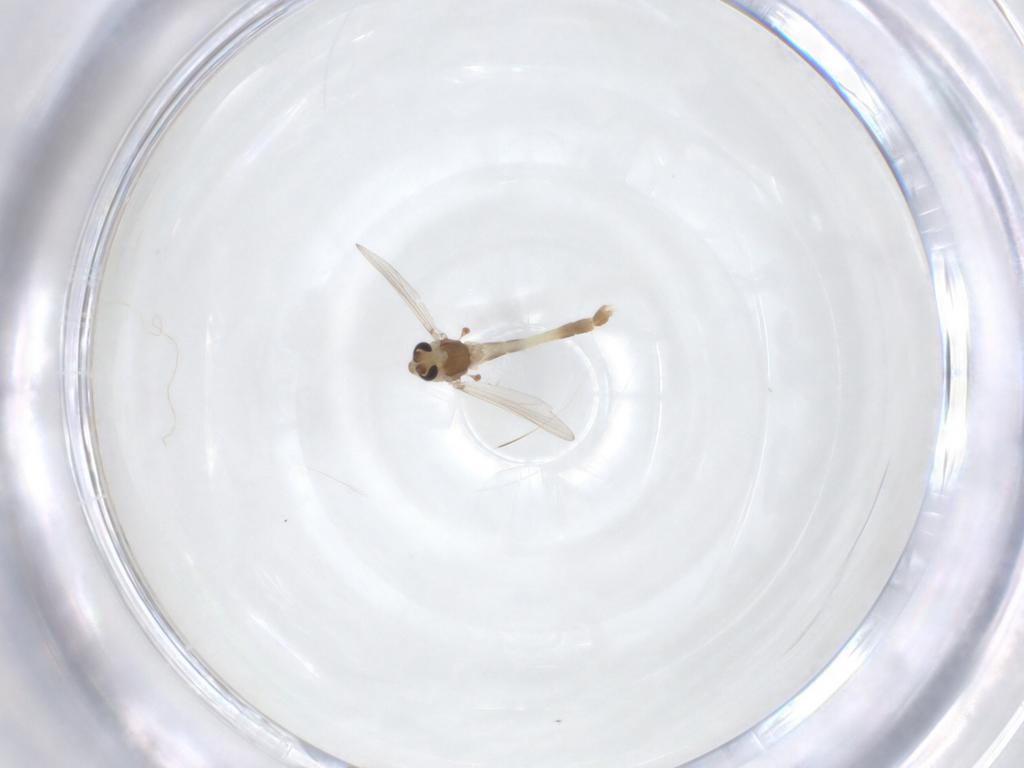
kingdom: Animalia
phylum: Arthropoda
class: Insecta
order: Diptera
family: Chironomidae
